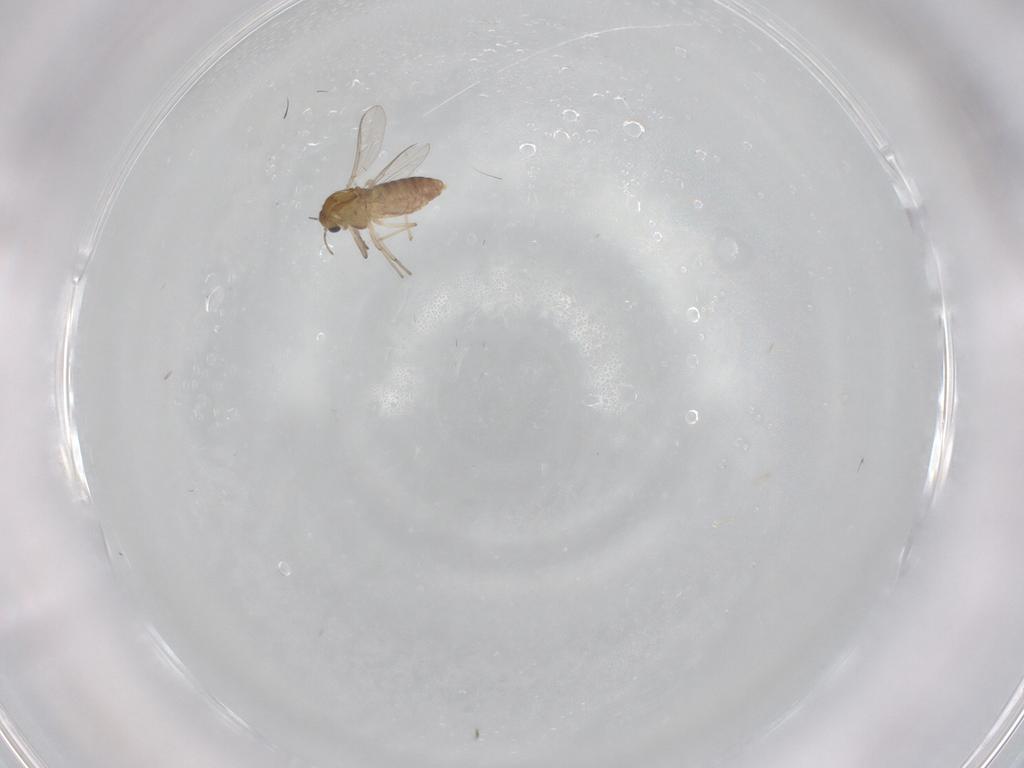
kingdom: Animalia
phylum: Arthropoda
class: Insecta
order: Diptera
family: Chironomidae
